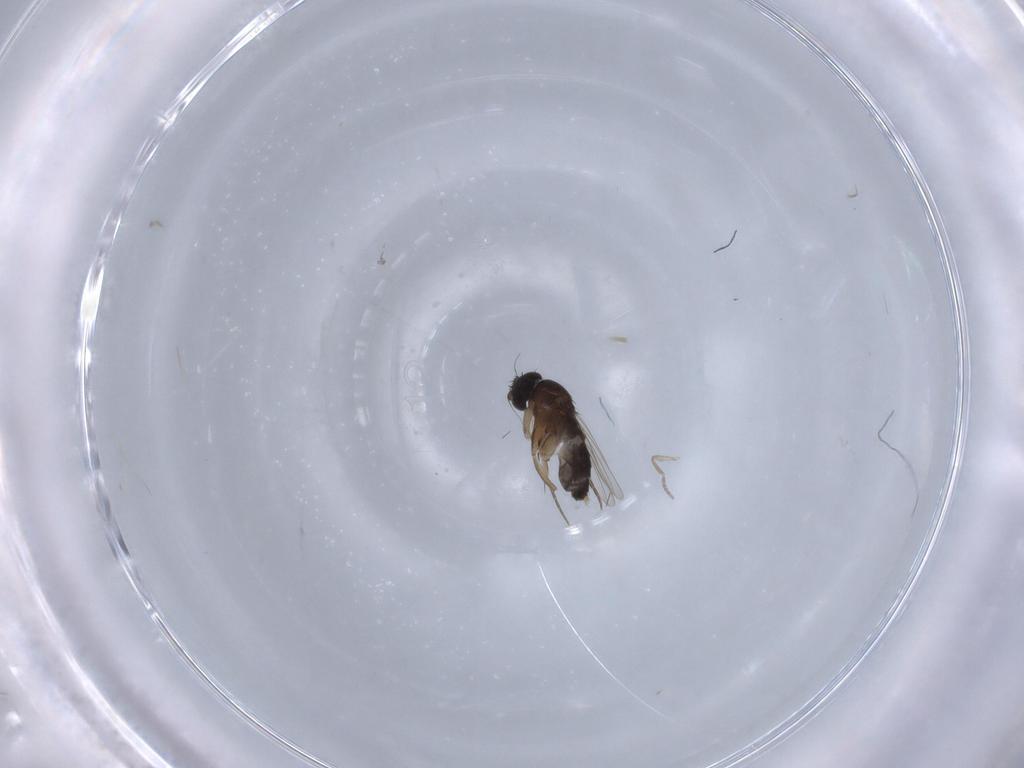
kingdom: Animalia
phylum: Arthropoda
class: Insecta
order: Diptera
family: Phoridae
